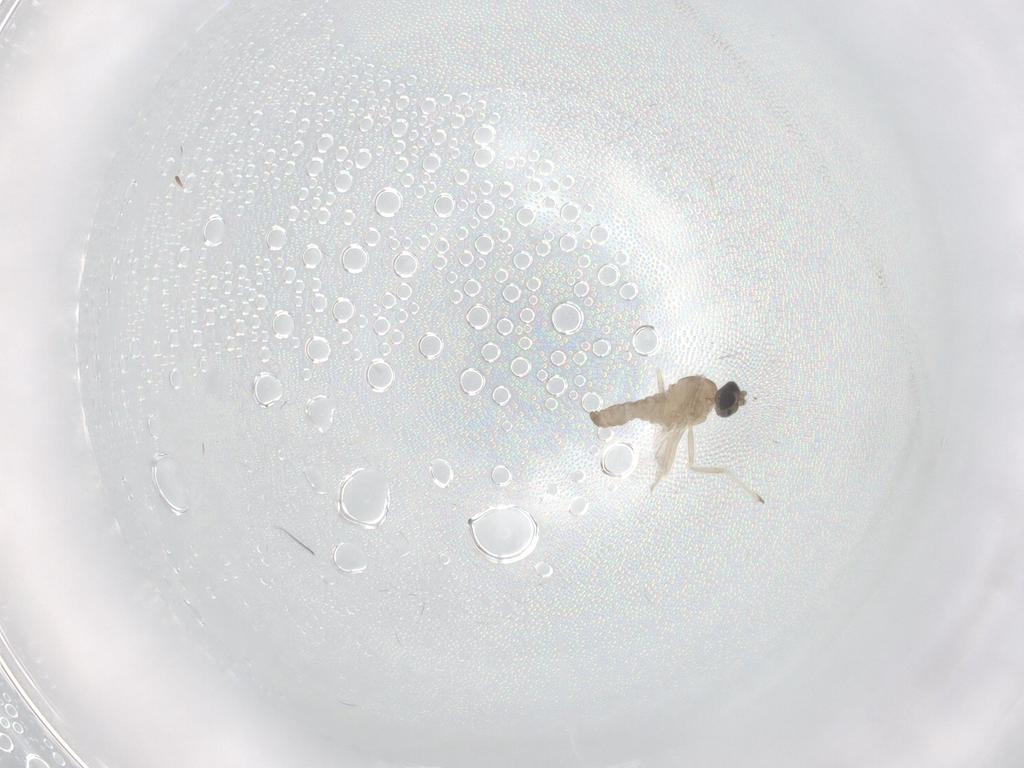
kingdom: Animalia
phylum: Arthropoda
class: Insecta
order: Diptera
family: Cecidomyiidae
